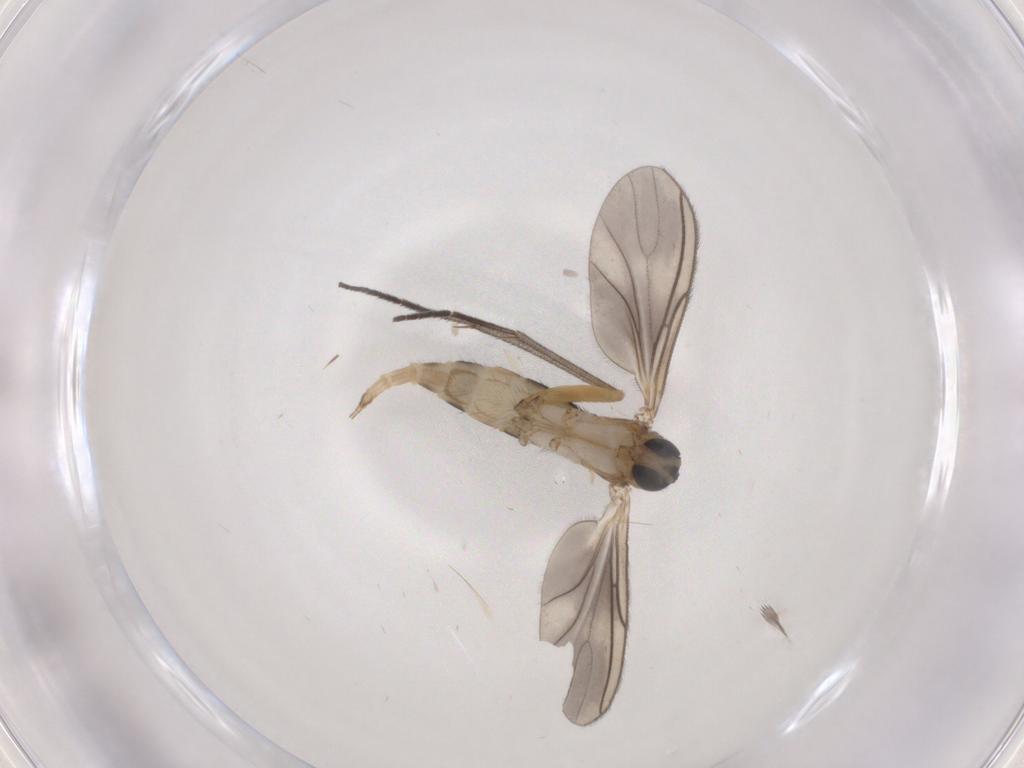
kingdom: Animalia
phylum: Arthropoda
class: Insecta
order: Diptera
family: Sciaridae
